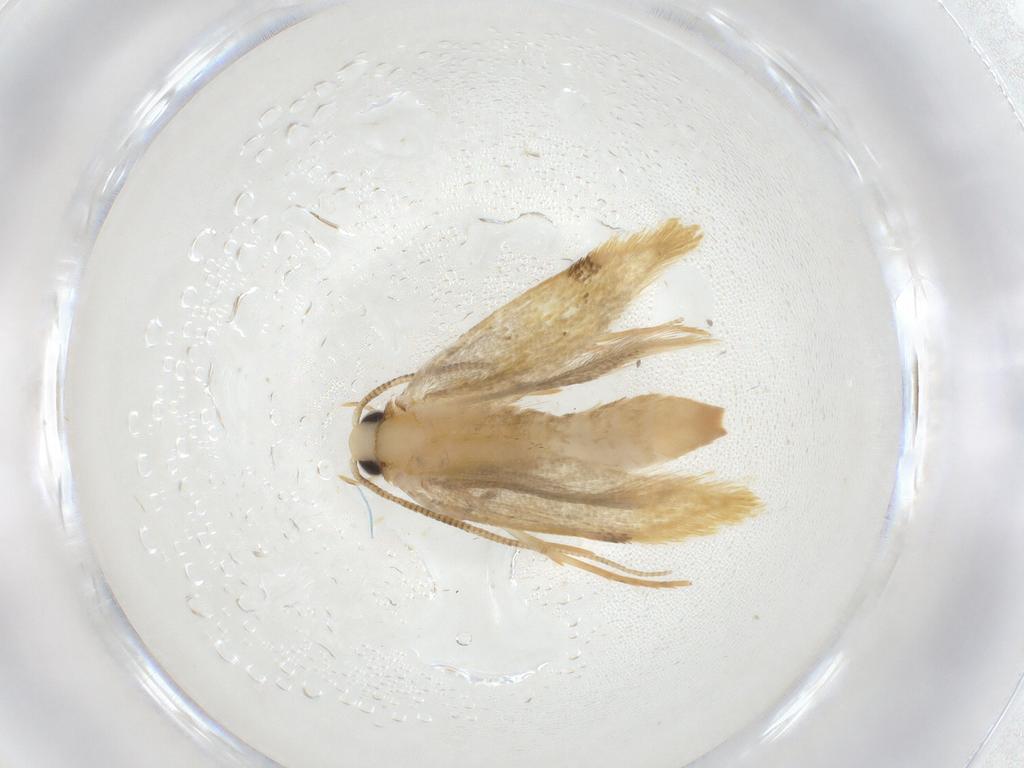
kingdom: Animalia
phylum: Arthropoda
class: Insecta
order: Lepidoptera
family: Tineidae
